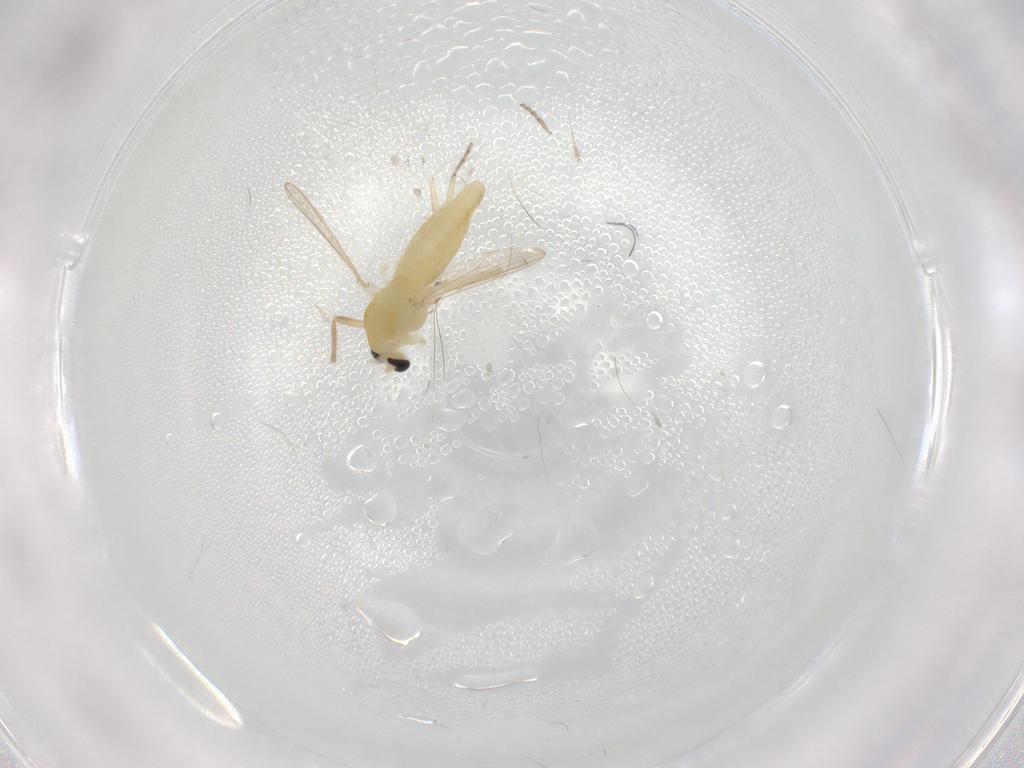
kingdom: Animalia
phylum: Arthropoda
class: Insecta
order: Diptera
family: Chironomidae
